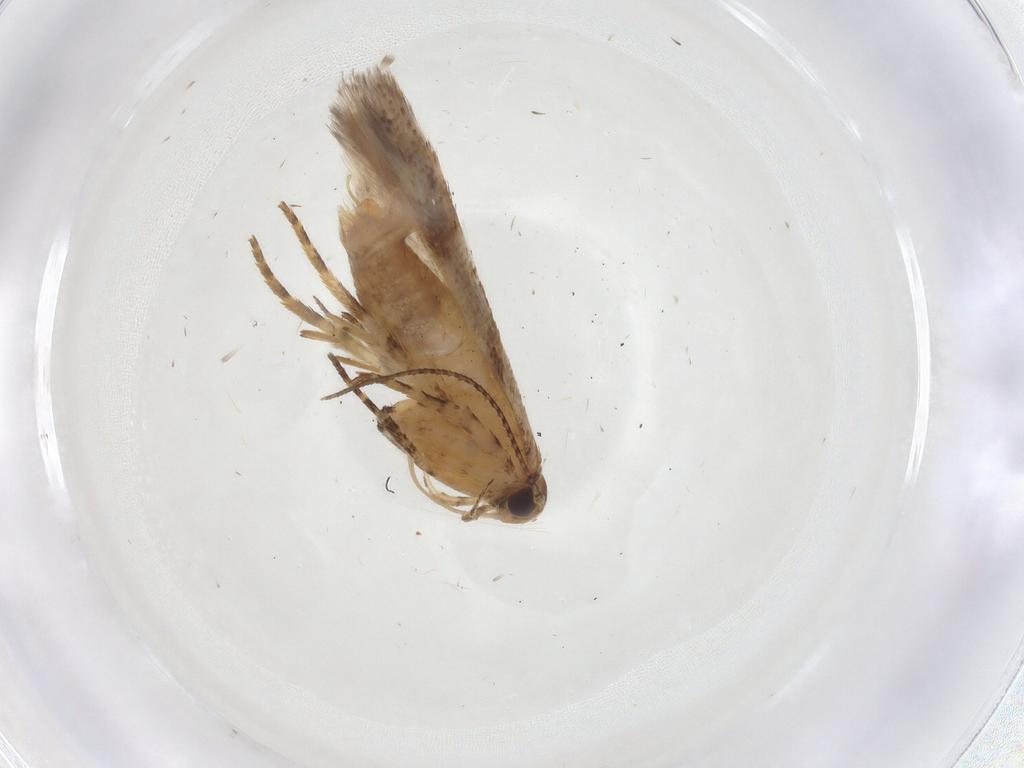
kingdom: Animalia
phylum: Arthropoda
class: Insecta
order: Lepidoptera
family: Gelechiidae
